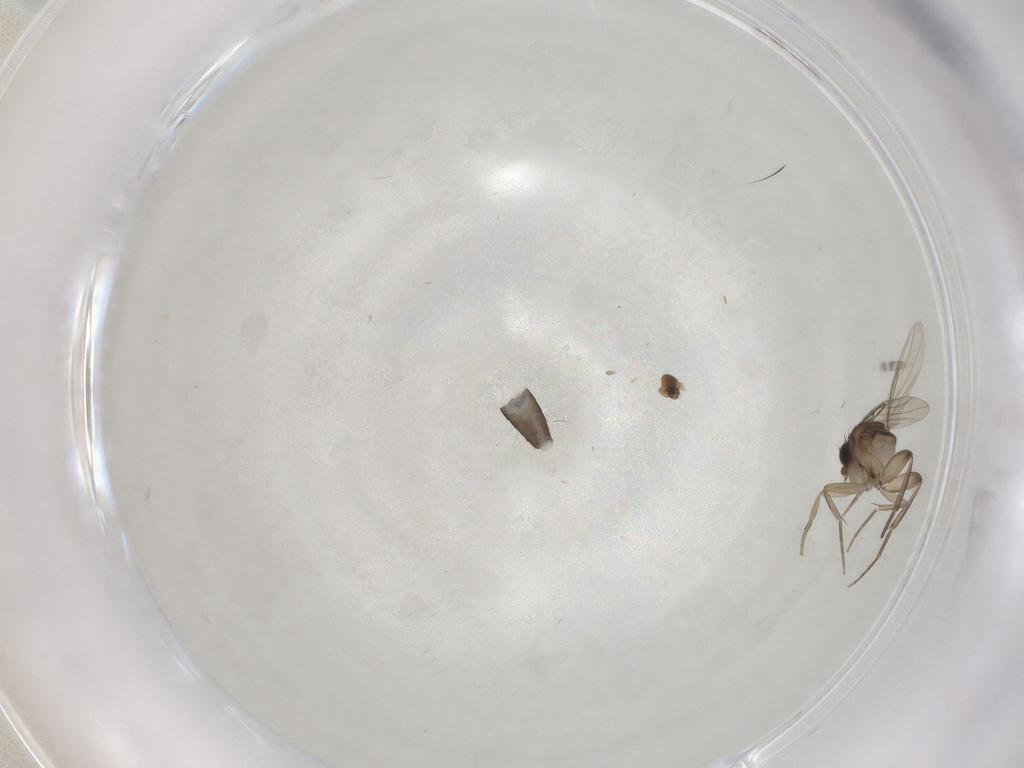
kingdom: Animalia
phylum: Arthropoda
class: Insecta
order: Diptera
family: Phoridae
